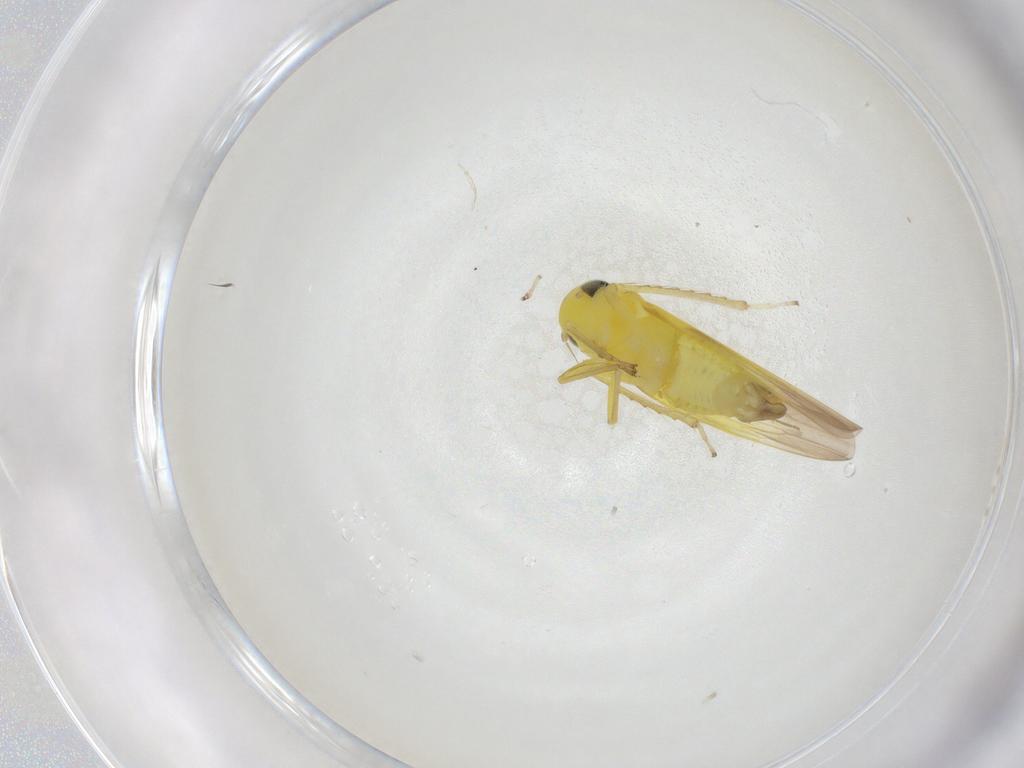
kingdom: Animalia
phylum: Arthropoda
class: Insecta
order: Hemiptera
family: Cicadellidae
